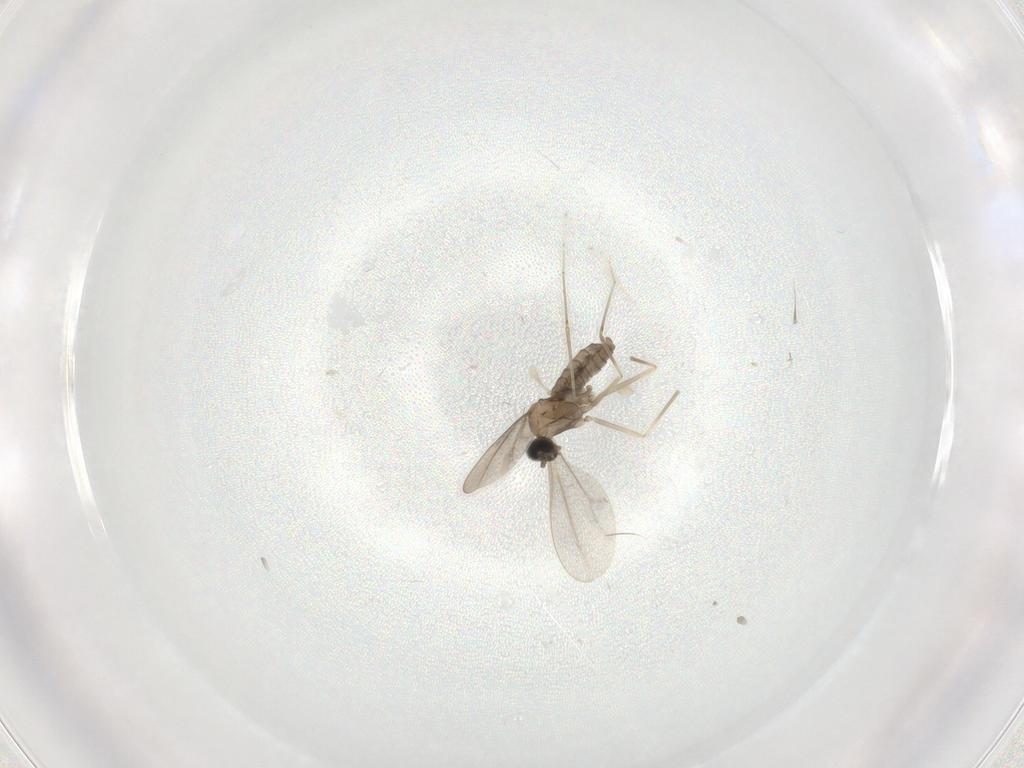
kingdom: Animalia
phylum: Arthropoda
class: Insecta
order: Diptera
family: Cecidomyiidae
